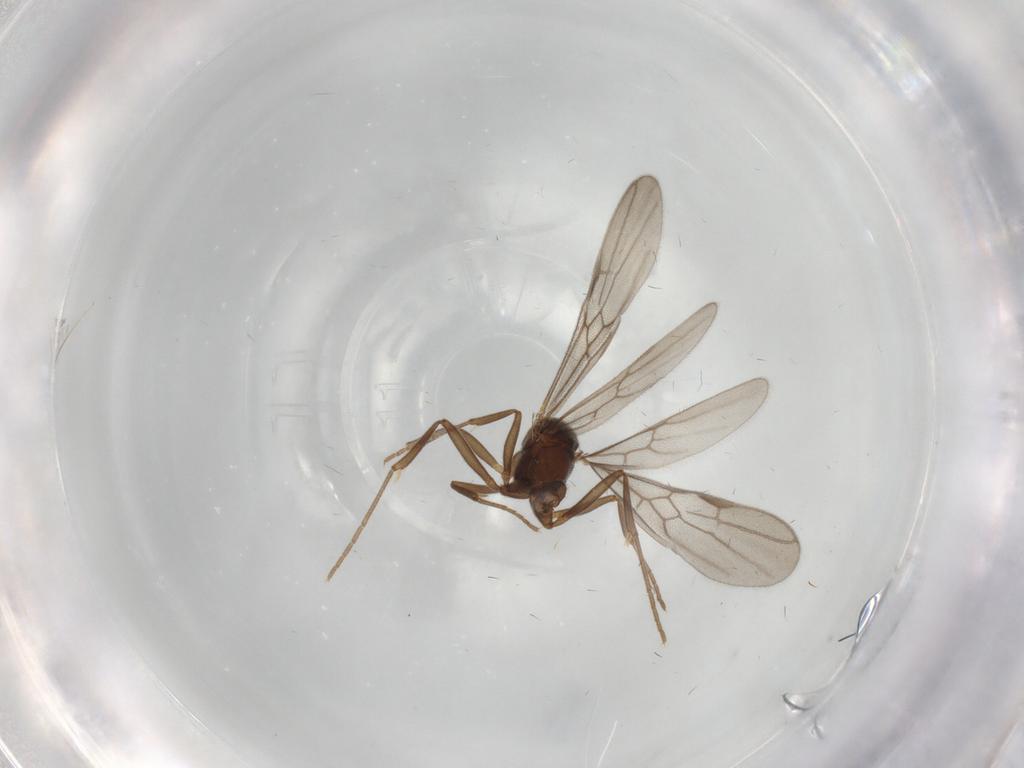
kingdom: Animalia
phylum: Arthropoda
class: Insecta
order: Hymenoptera
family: Formicidae
